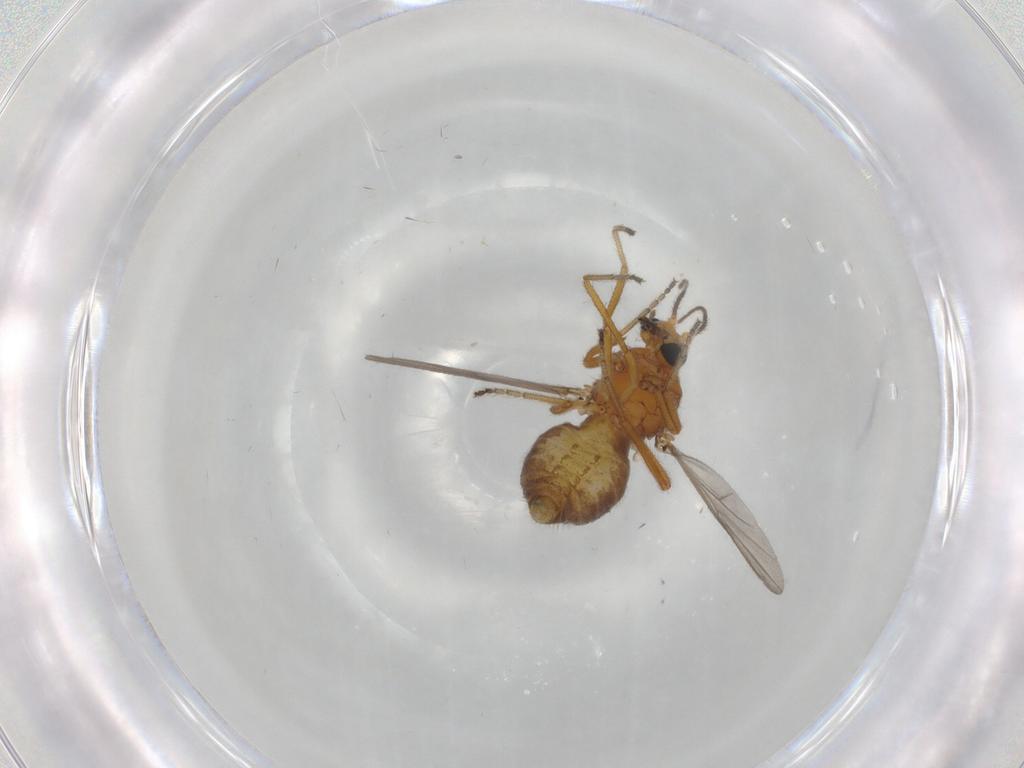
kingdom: Animalia
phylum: Arthropoda
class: Insecta
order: Diptera
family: Ceratopogonidae
